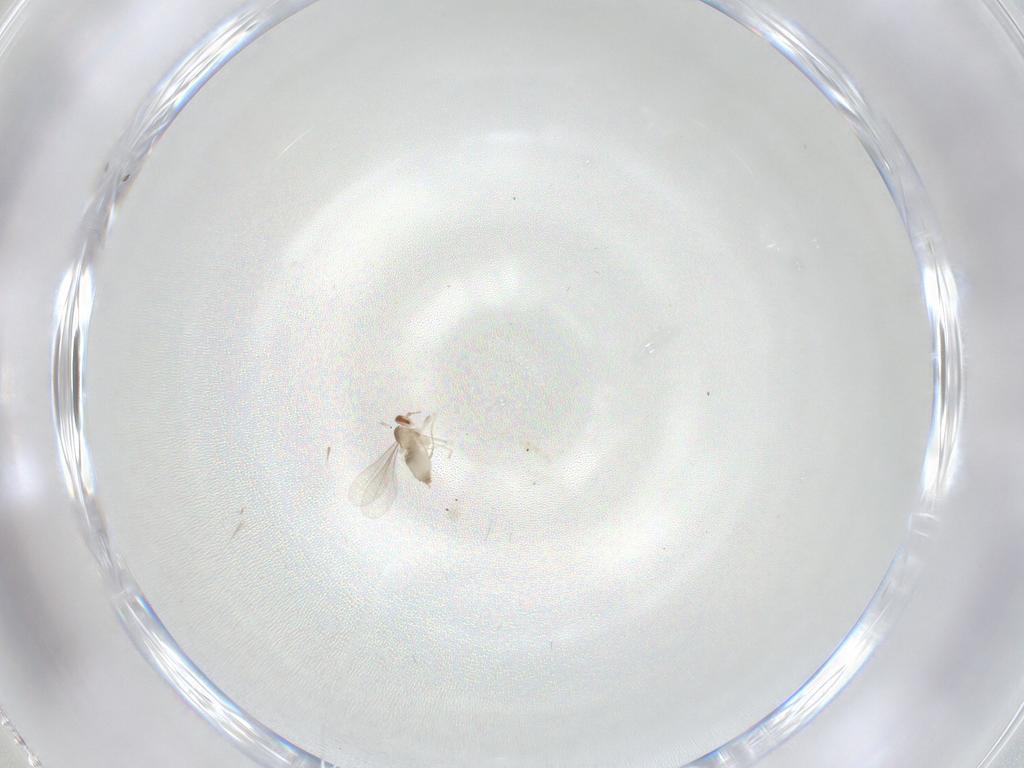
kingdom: Animalia
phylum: Arthropoda
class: Insecta
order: Diptera
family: Cecidomyiidae
